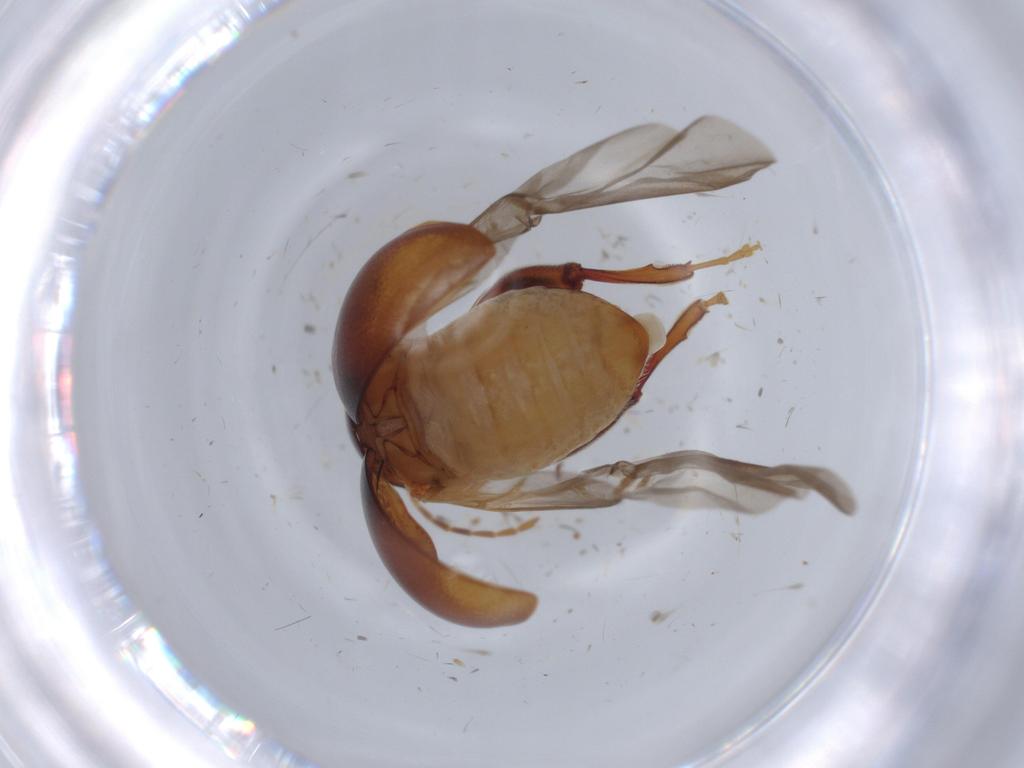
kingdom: Animalia
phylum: Arthropoda
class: Insecta
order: Coleoptera
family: Chrysomelidae
